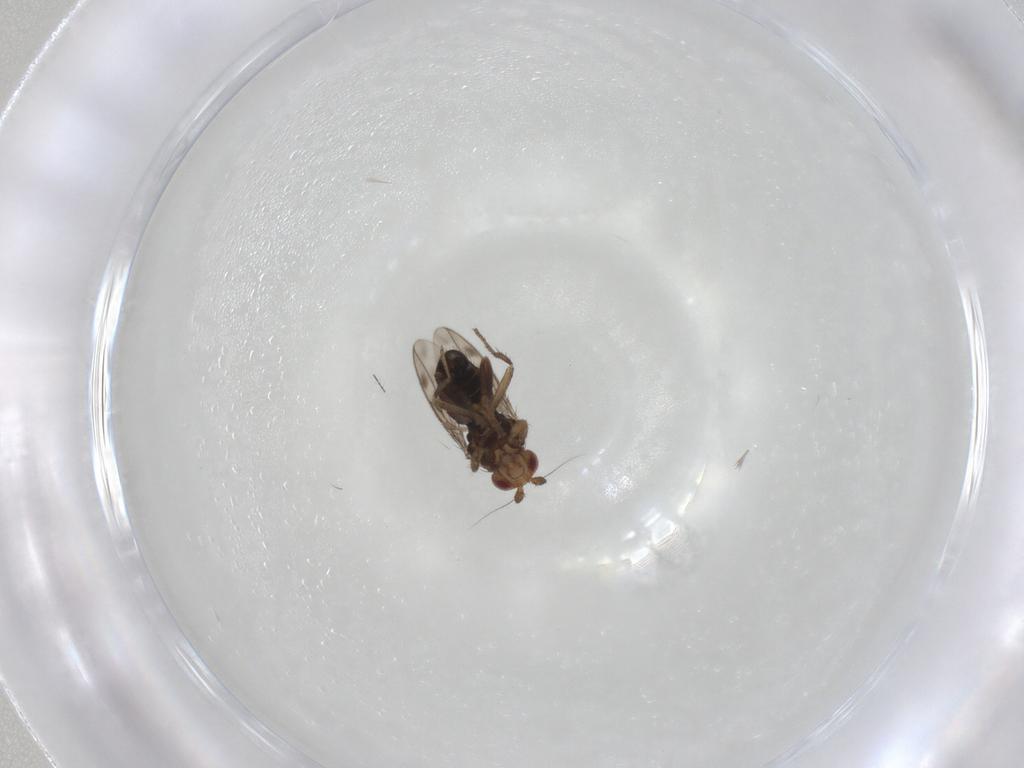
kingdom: Animalia
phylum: Arthropoda
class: Insecta
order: Diptera
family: Sphaeroceridae
